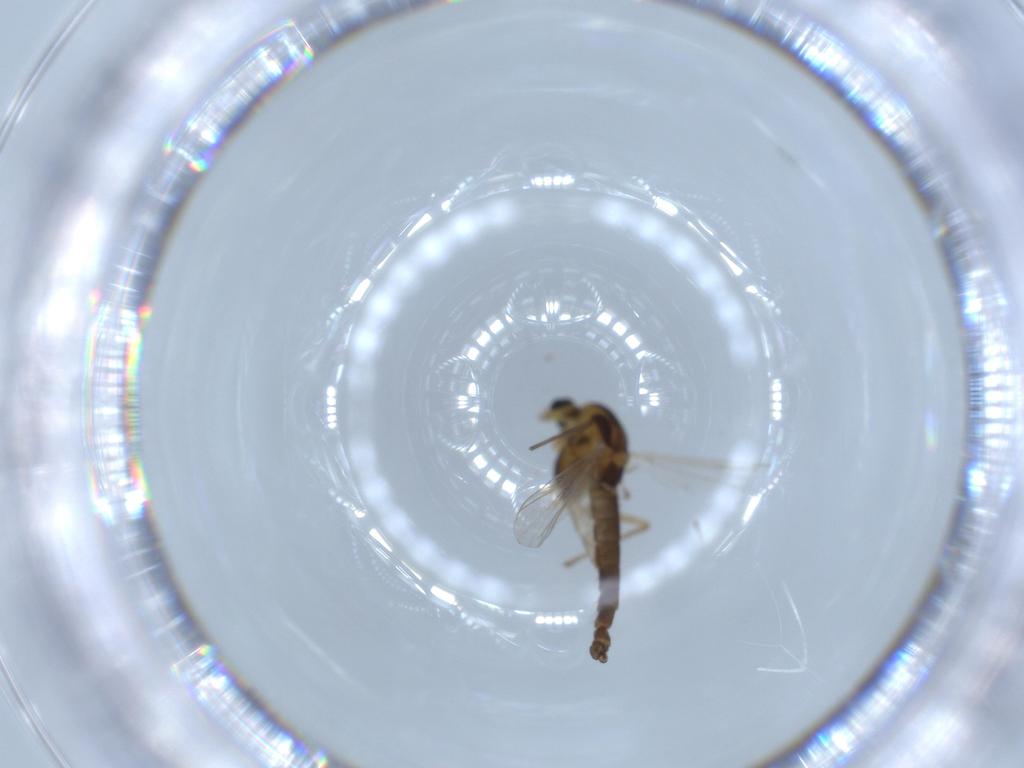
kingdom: Animalia
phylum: Arthropoda
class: Insecta
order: Diptera
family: Chironomidae
